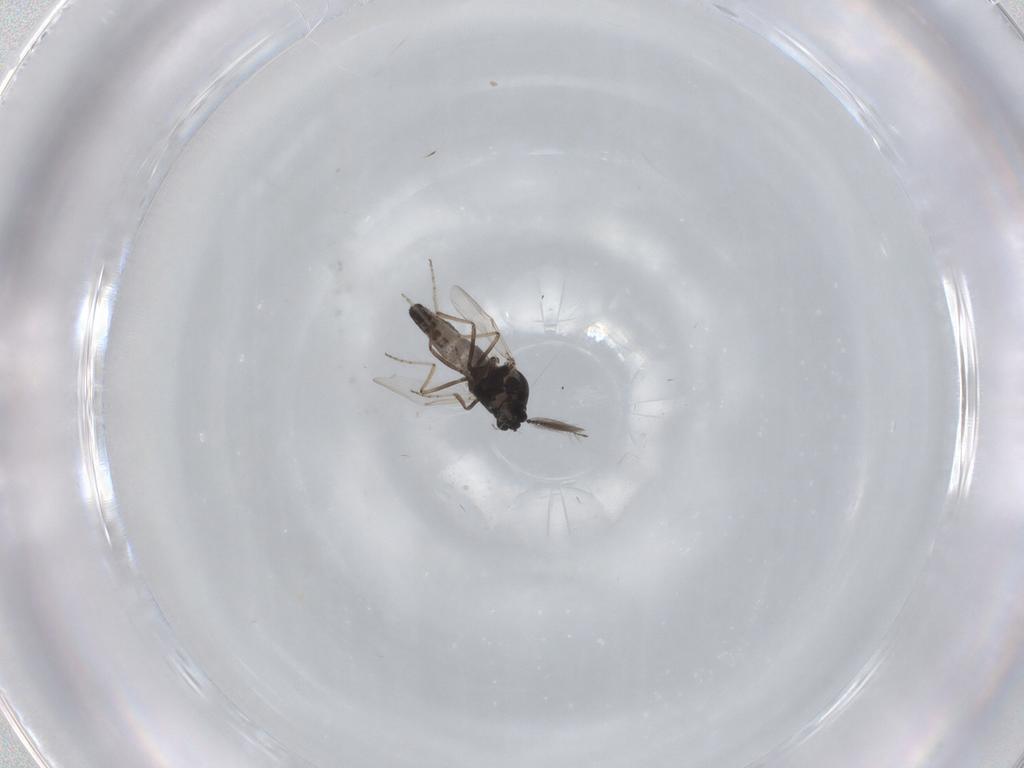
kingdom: Animalia
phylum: Arthropoda
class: Insecta
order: Diptera
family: Ceratopogonidae
